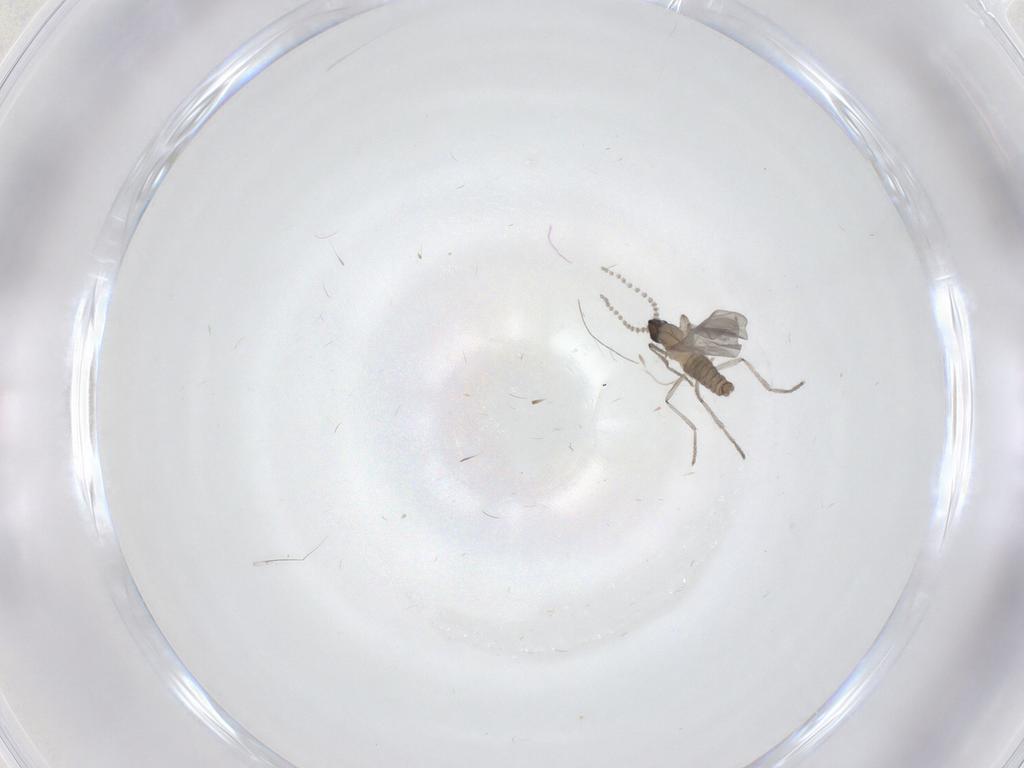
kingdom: Animalia
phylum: Arthropoda
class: Insecta
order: Diptera
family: Cecidomyiidae
